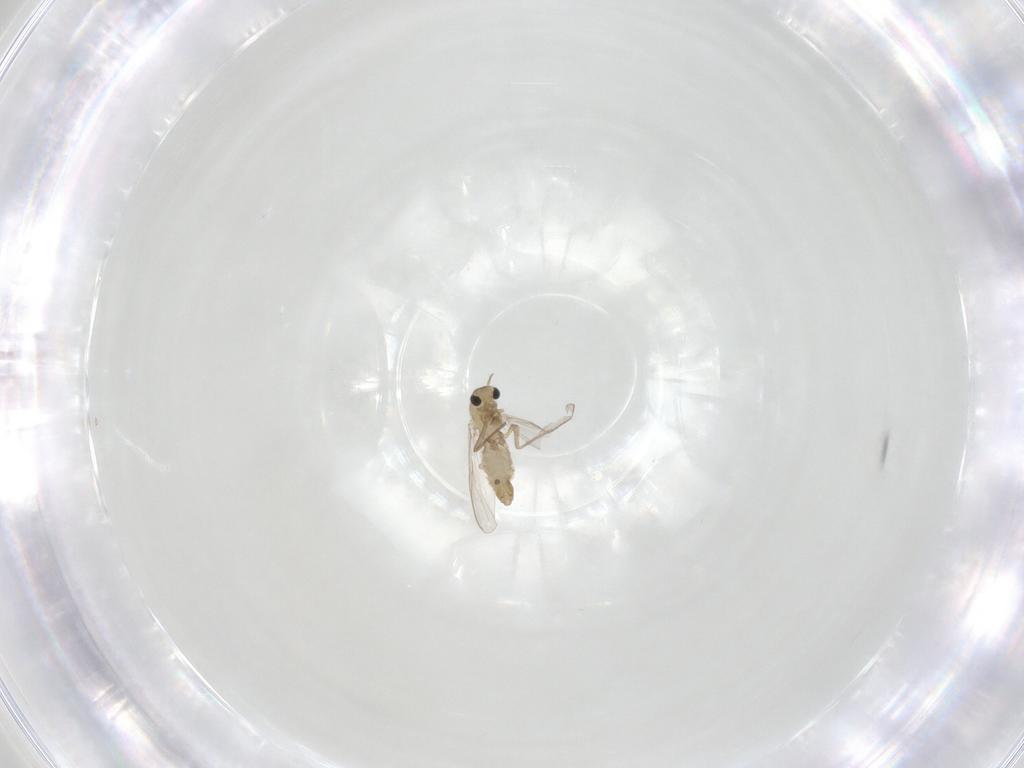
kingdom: Animalia
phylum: Arthropoda
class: Insecta
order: Diptera
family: Chironomidae
